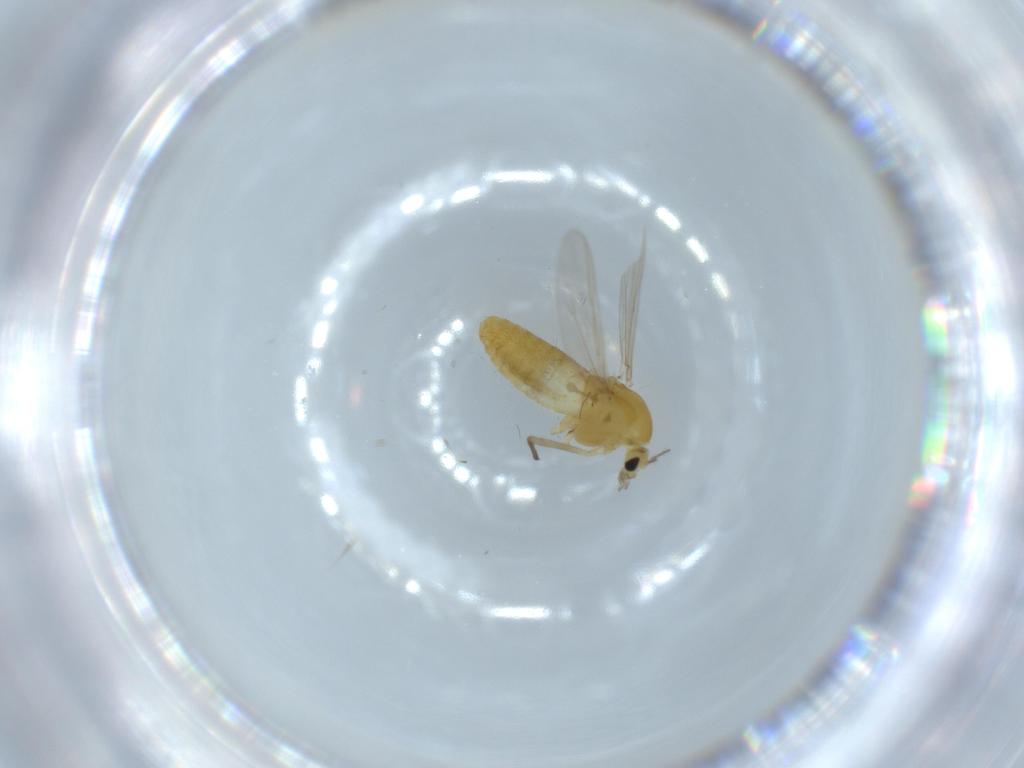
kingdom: Animalia
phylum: Arthropoda
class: Insecta
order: Diptera
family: Chironomidae
